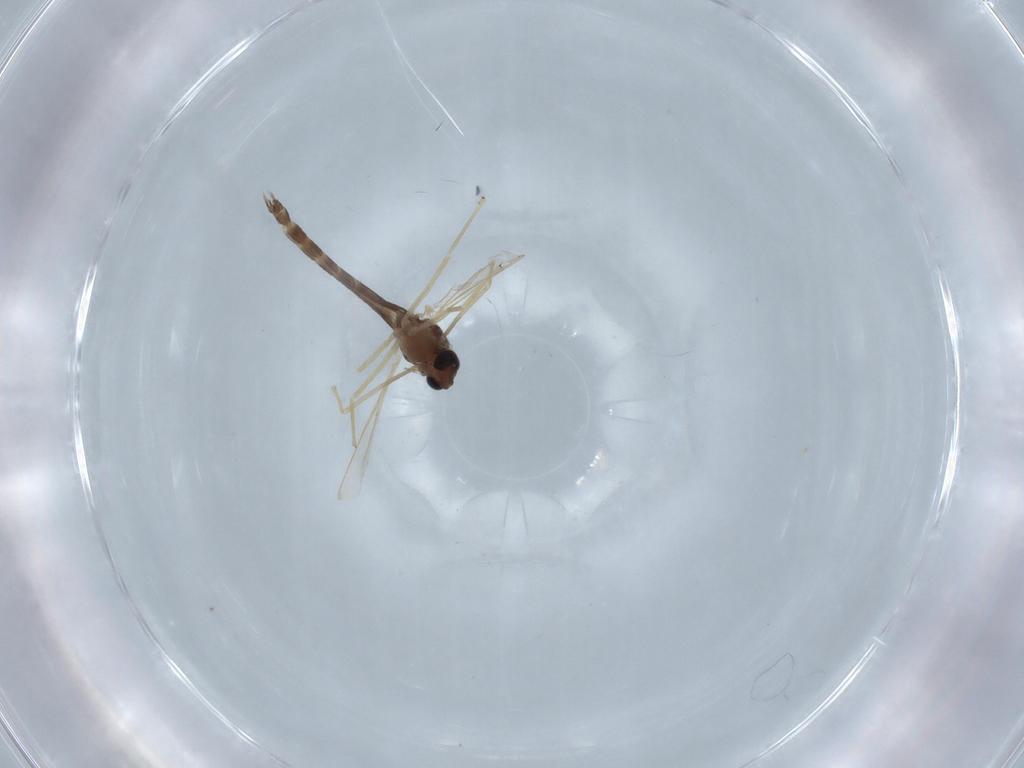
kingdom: Animalia
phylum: Arthropoda
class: Insecta
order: Diptera
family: Chironomidae
